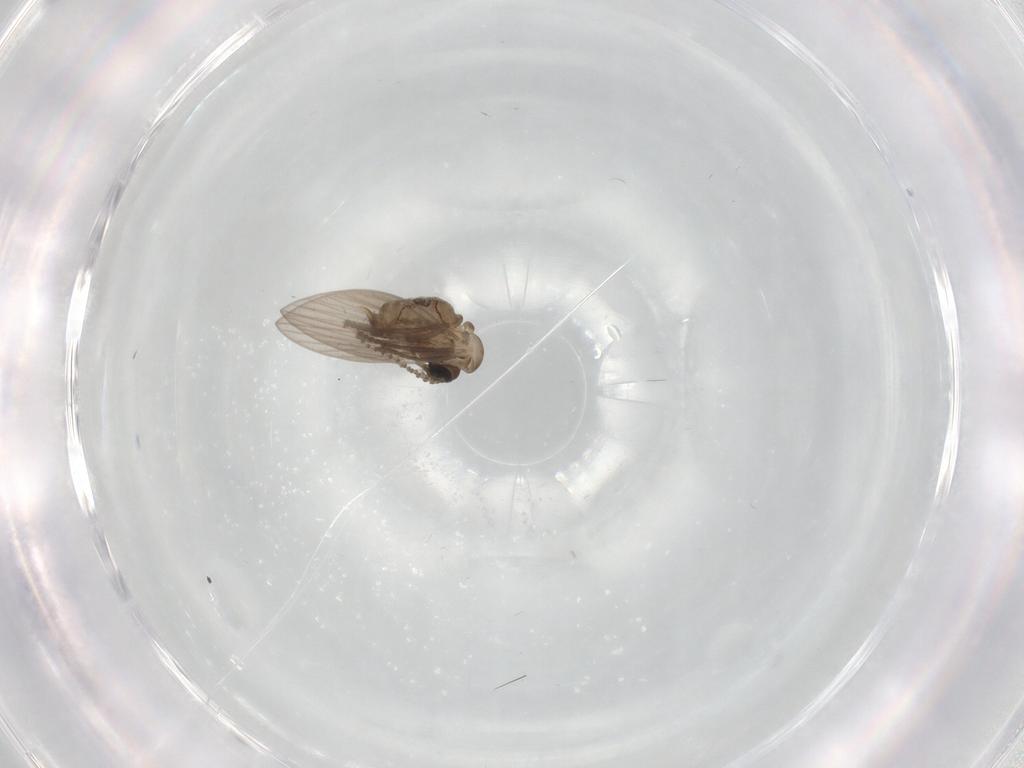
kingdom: Animalia
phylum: Arthropoda
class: Insecta
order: Diptera
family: Psychodidae
